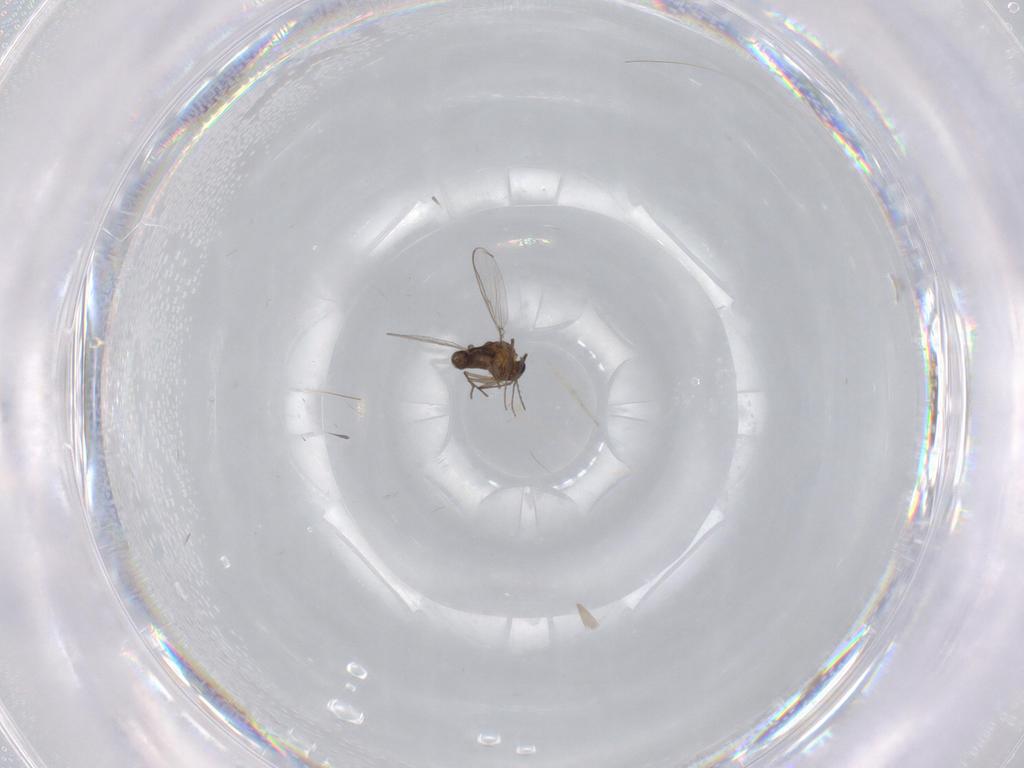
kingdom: Animalia
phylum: Arthropoda
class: Insecta
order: Diptera
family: Chironomidae
